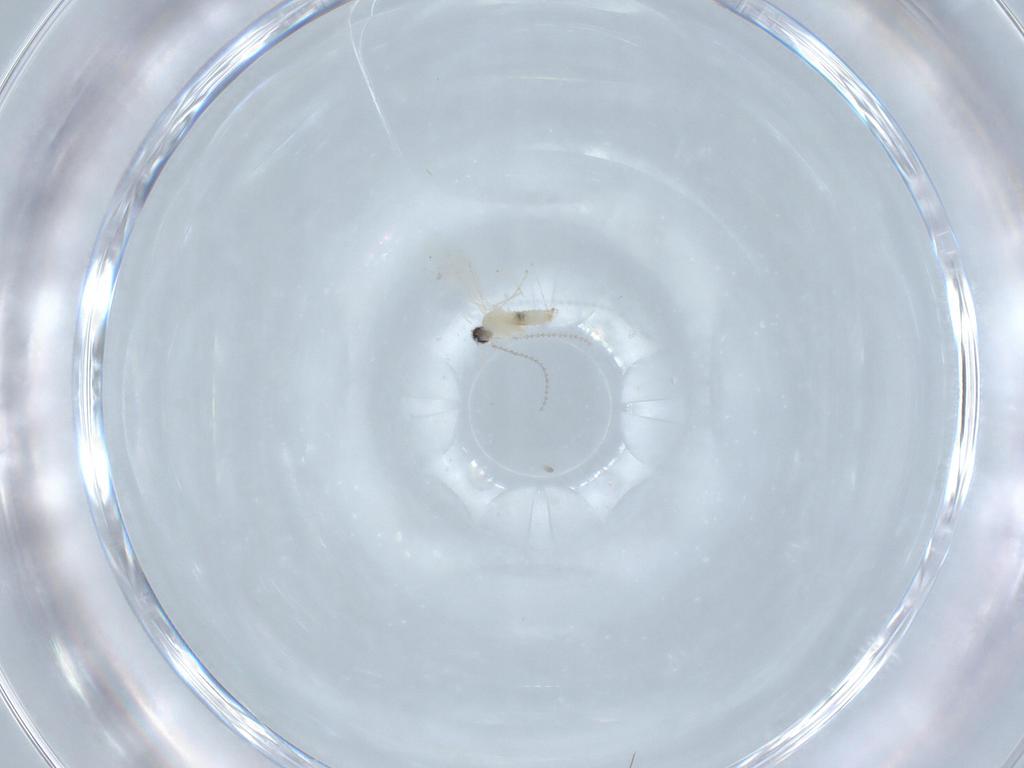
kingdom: Animalia
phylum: Arthropoda
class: Insecta
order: Diptera
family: Cecidomyiidae
